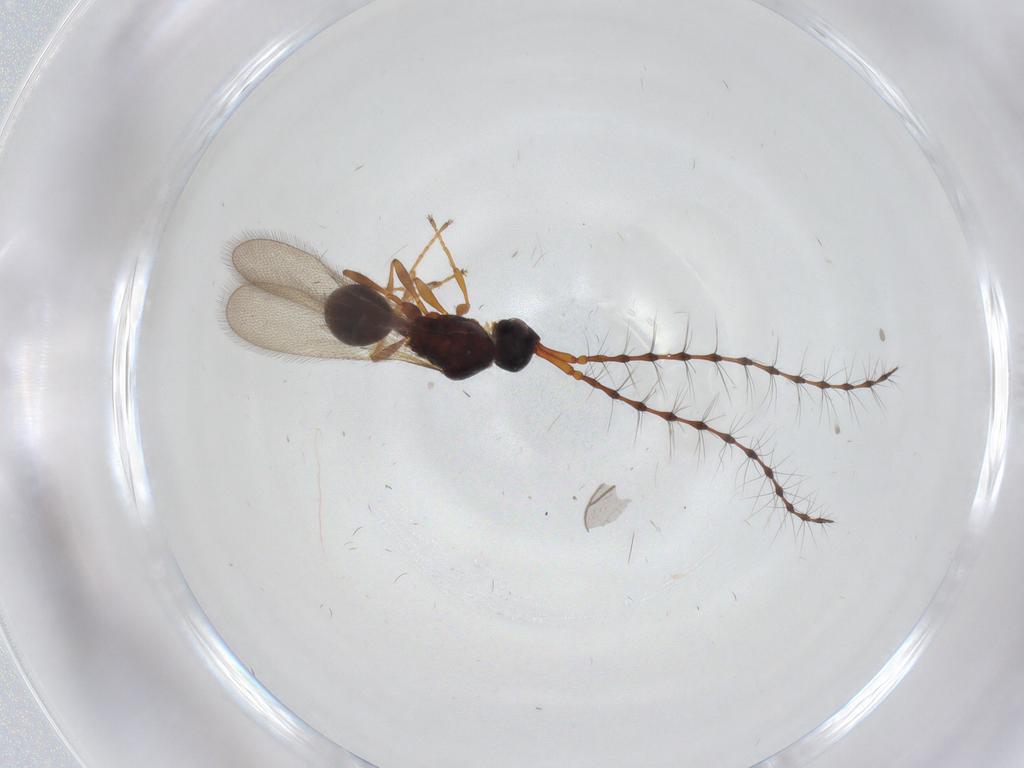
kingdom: Animalia
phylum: Arthropoda
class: Insecta
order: Hymenoptera
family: Diapriidae
